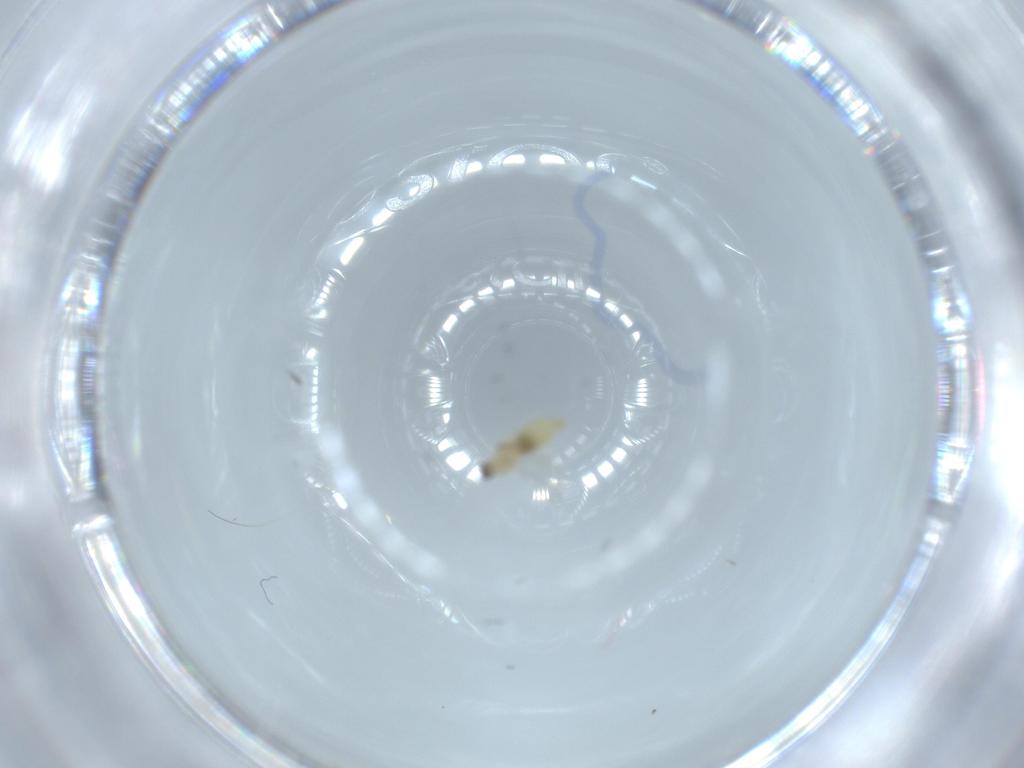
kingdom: Animalia
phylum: Arthropoda
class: Insecta
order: Diptera
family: Cecidomyiidae
